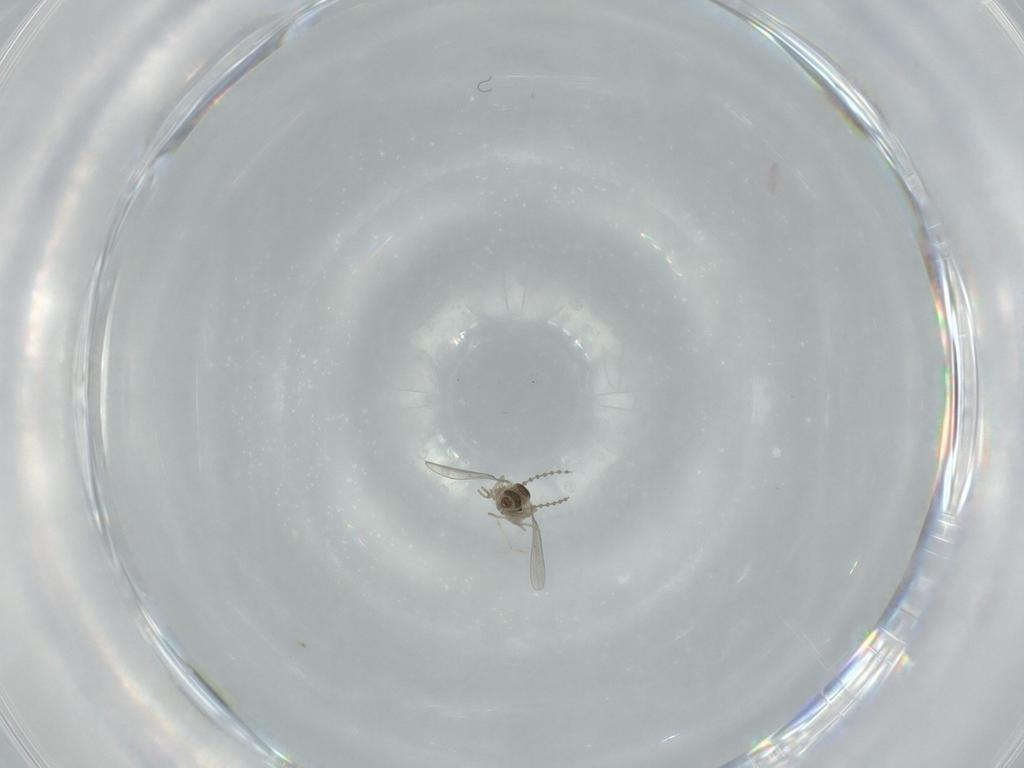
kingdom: Animalia
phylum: Arthropoda
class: Insecta
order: Diptera
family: Cecidomyiidae
